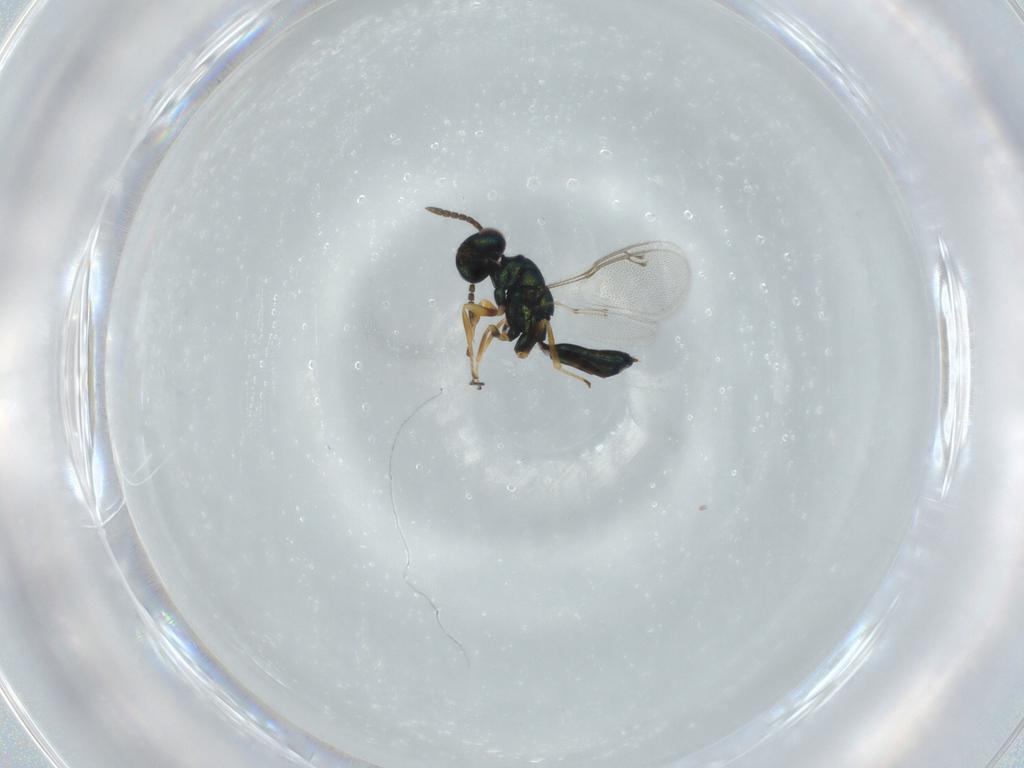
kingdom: Animalia
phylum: Arthropoda
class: Insecta
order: Hymenoptera
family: Pteromalidae
